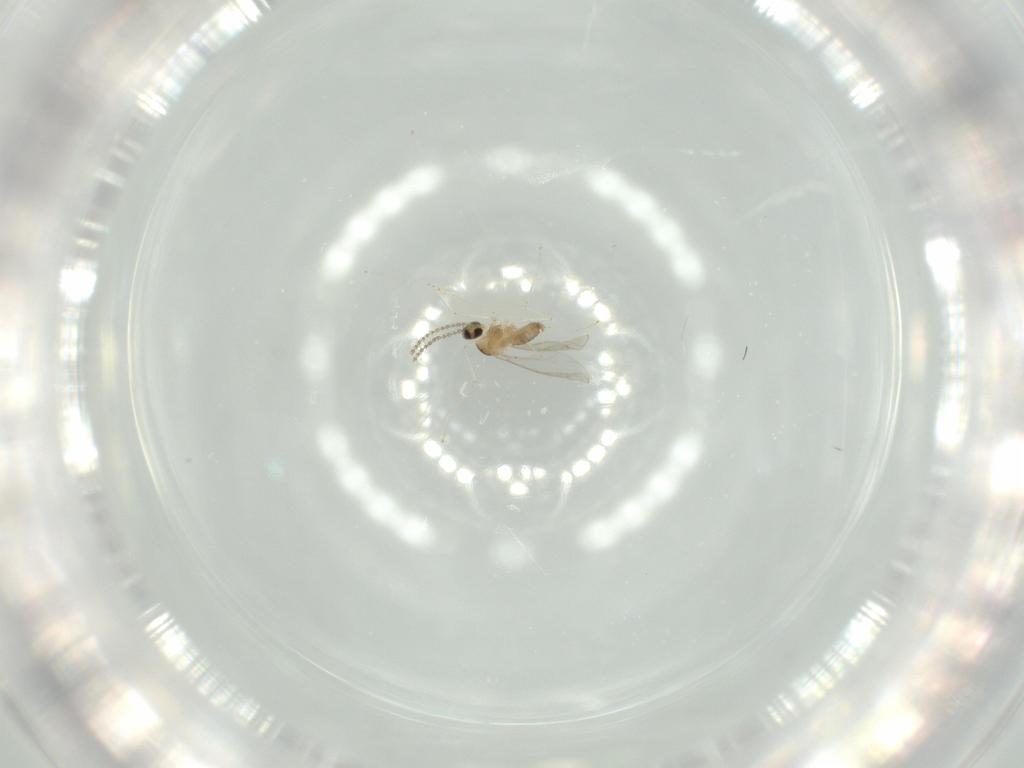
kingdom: Animalia
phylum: Arthropoda
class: Insecta
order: Diptera
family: Cecidomyiidae
